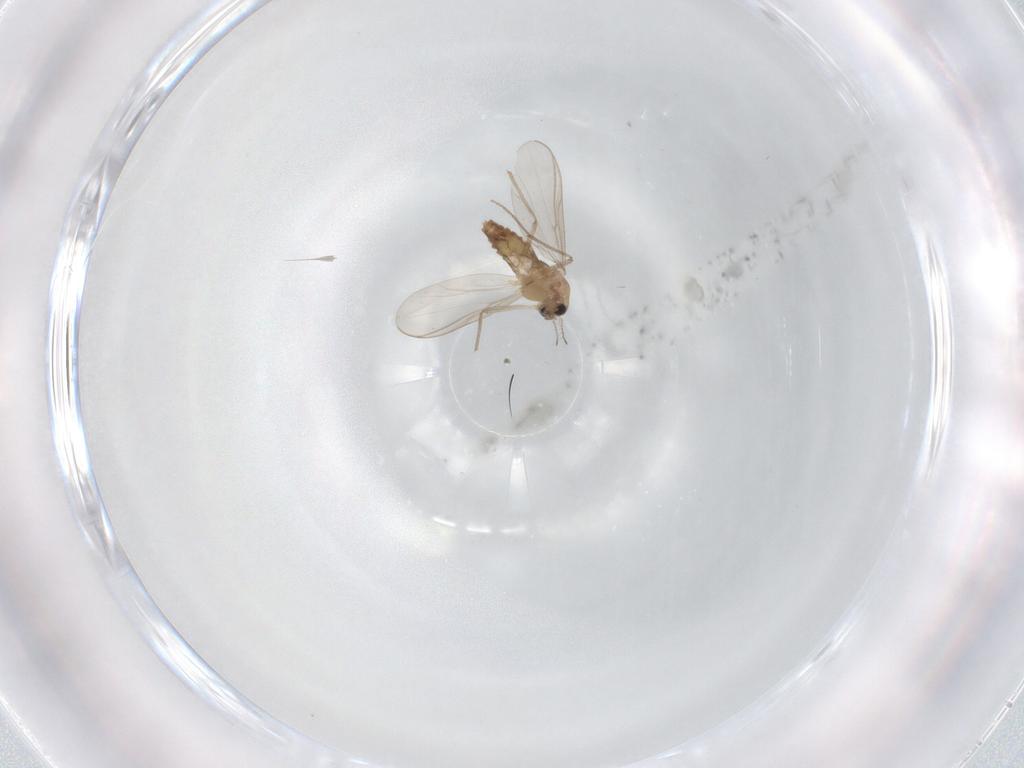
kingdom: Animalia
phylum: Arthropoda
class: Insecta
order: Diptera
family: Chironomidae
